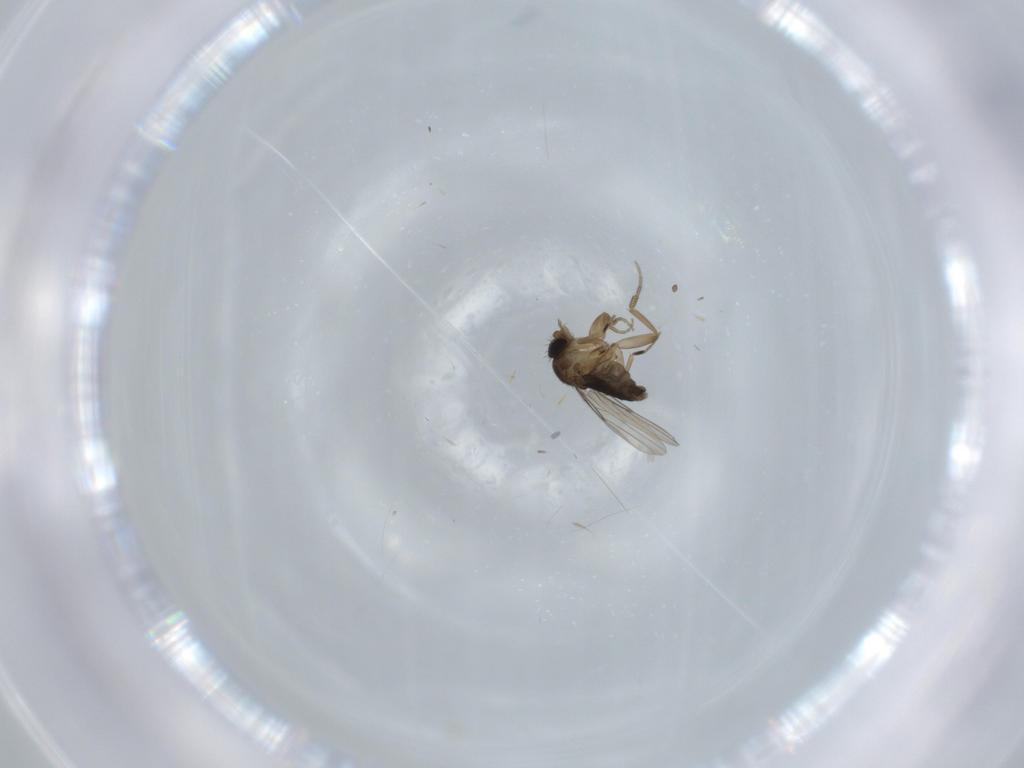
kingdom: Animalia
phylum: Arthropoda
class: Insecta
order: Diptera
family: Phoridae
